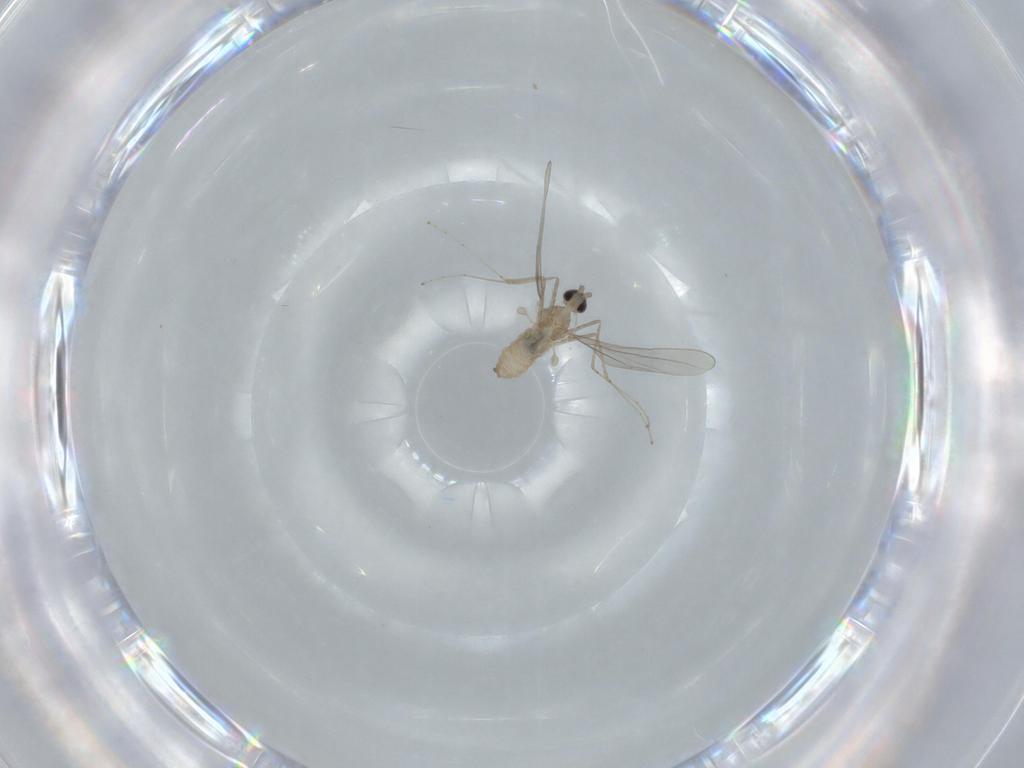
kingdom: Animalia
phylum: Arthropoda
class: Insecta
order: Diptera
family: Cecidomyiidae
